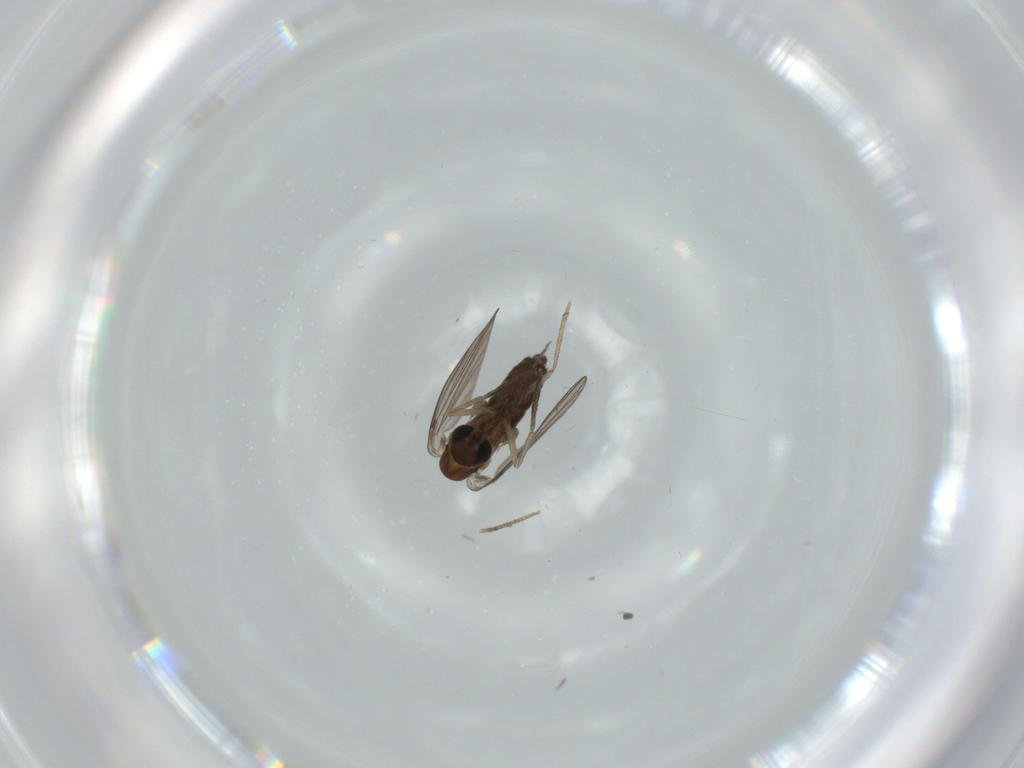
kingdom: Animalia
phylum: Arthropoda
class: Insecta
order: Diptera
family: Psychodidae
